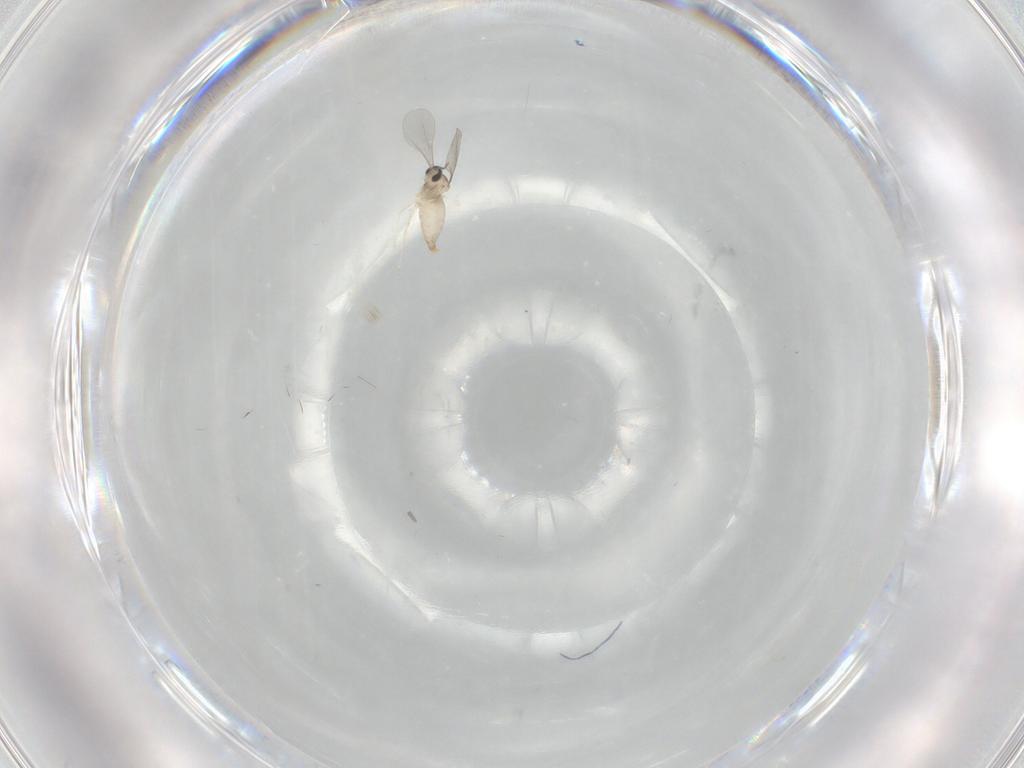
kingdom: Animalia
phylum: Arthropoda
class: Insecta
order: Diptera
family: Mycetophilidae
